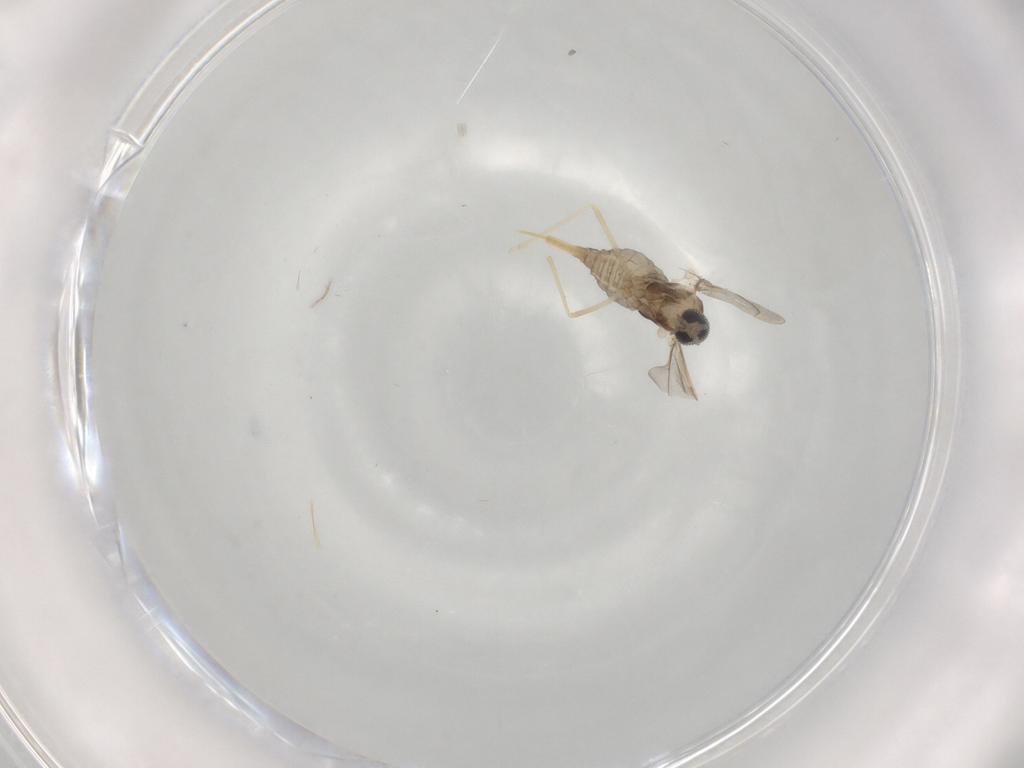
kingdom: Animalia
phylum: Arthropoda
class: Insecta
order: Diptera
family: Cecidomyiidae
